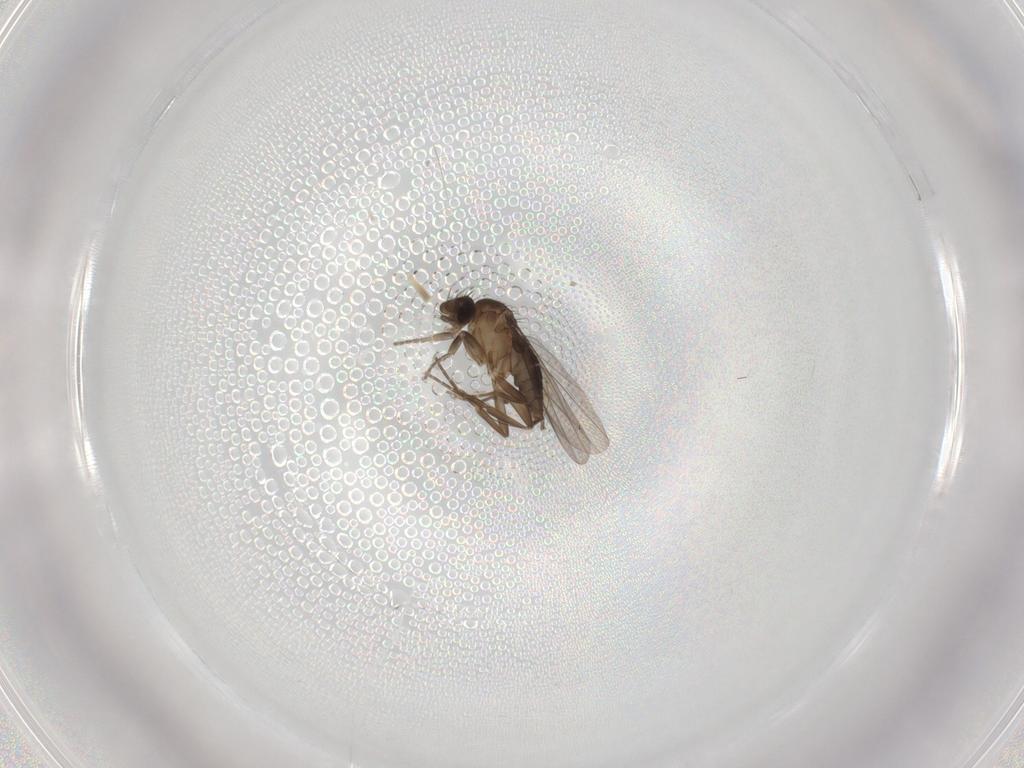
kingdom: Animalia
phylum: Arthropoda
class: Insecta
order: Diptera
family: Phoridae
